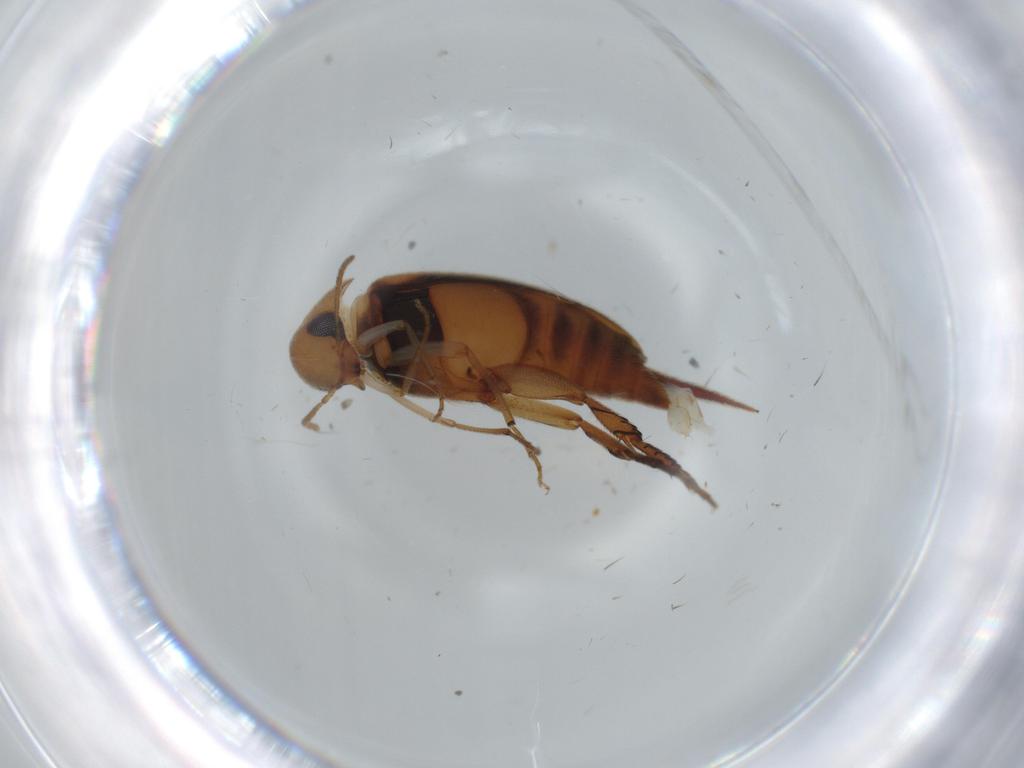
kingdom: Animalia
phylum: Arthropoda
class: Insecta
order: Coleoptera
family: Mordellidae
